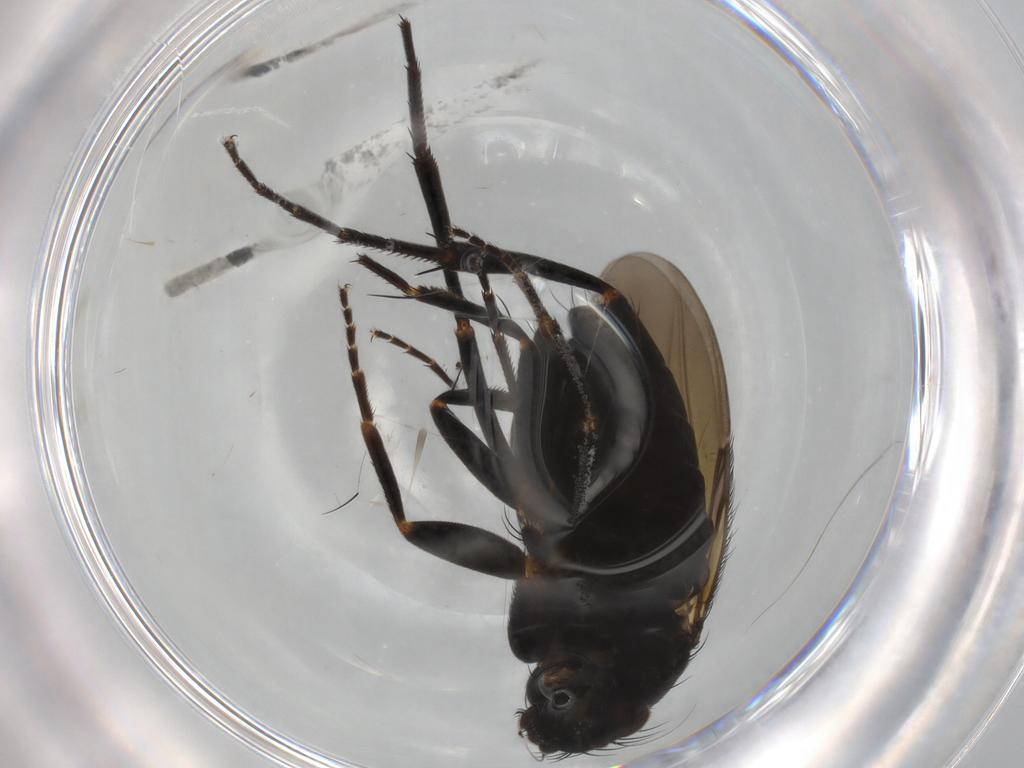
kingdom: Animalia
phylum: Arthropoda
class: Insecta
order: Diptera
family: Phoridae
